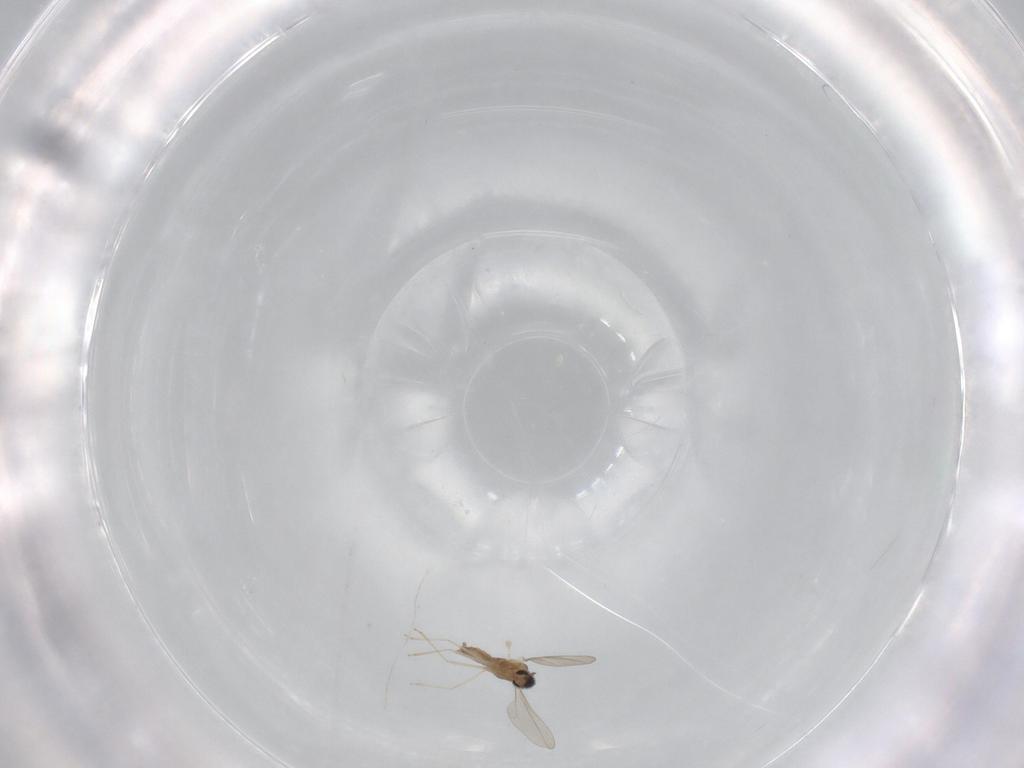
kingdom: Animalia
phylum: Arthropoda
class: Insecta
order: Diptera
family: Cecidomyiidae
